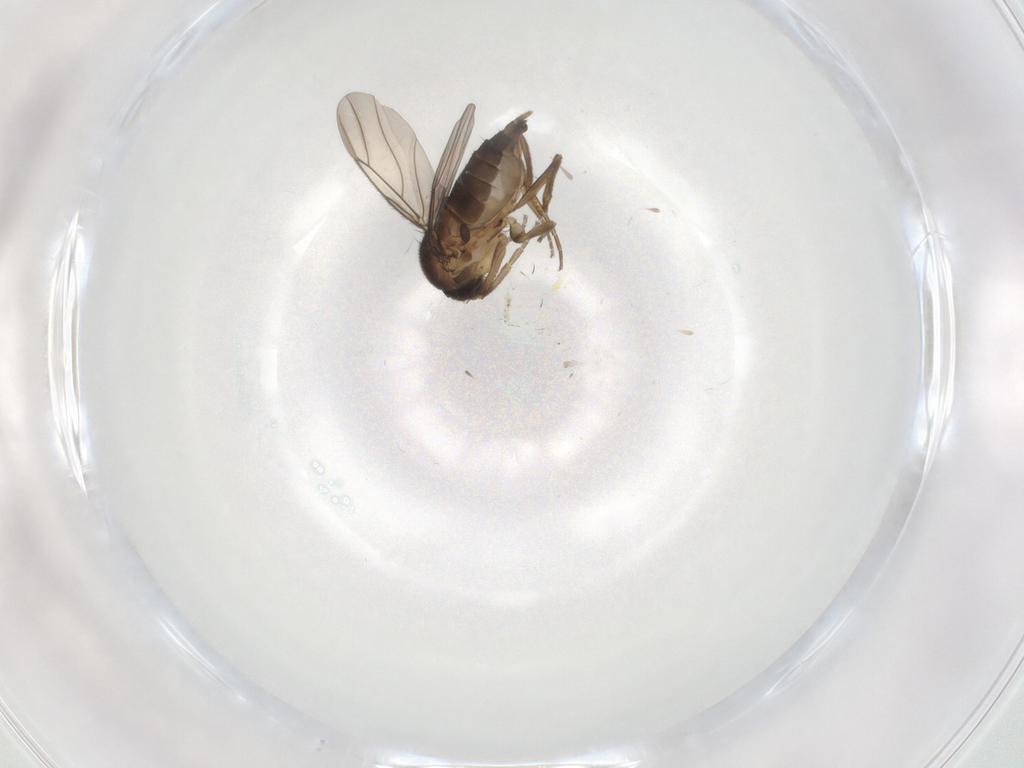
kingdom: Animalia
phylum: Arthropoda
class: Insecta
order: Diptera
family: Phoridae
